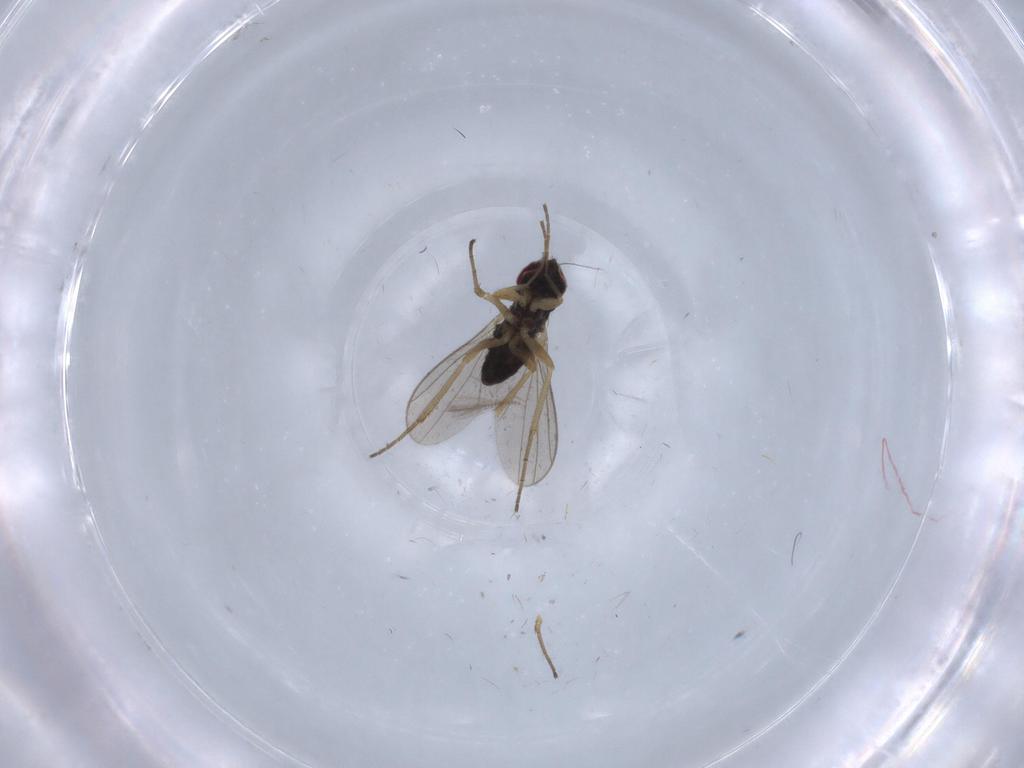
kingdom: Animalia
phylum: Arthropoda
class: Insecta
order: Diptera
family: Dolichopodidae
